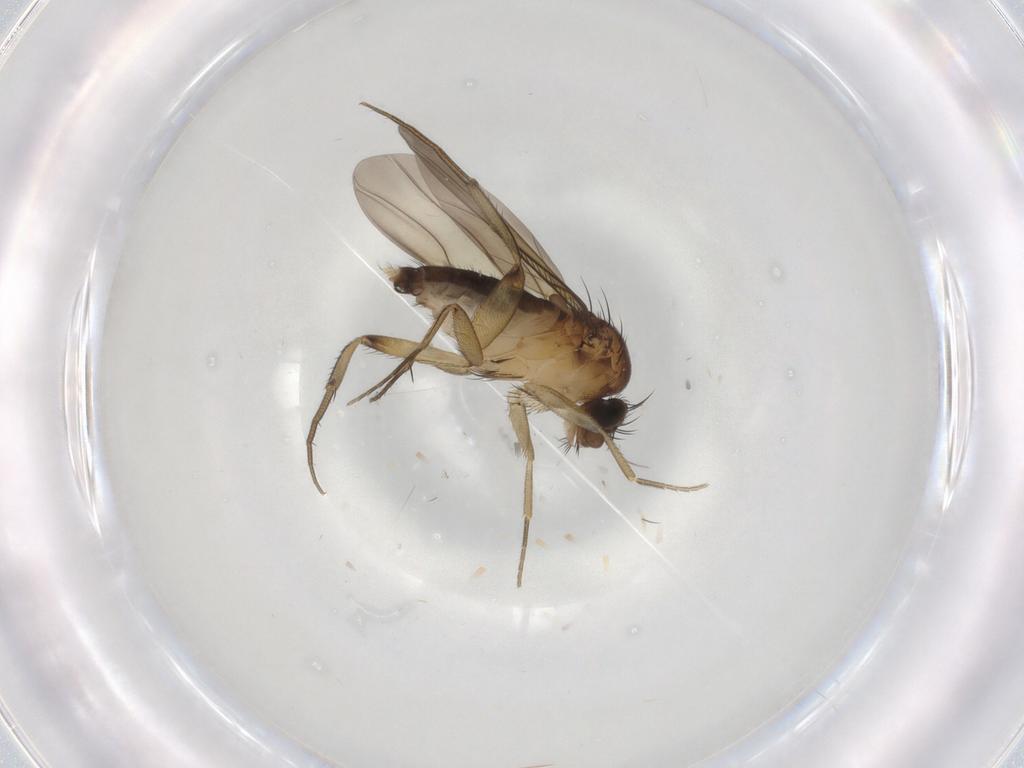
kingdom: Animalia
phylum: Arthropoda
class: Insecta
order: Diptera
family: Phoridae
